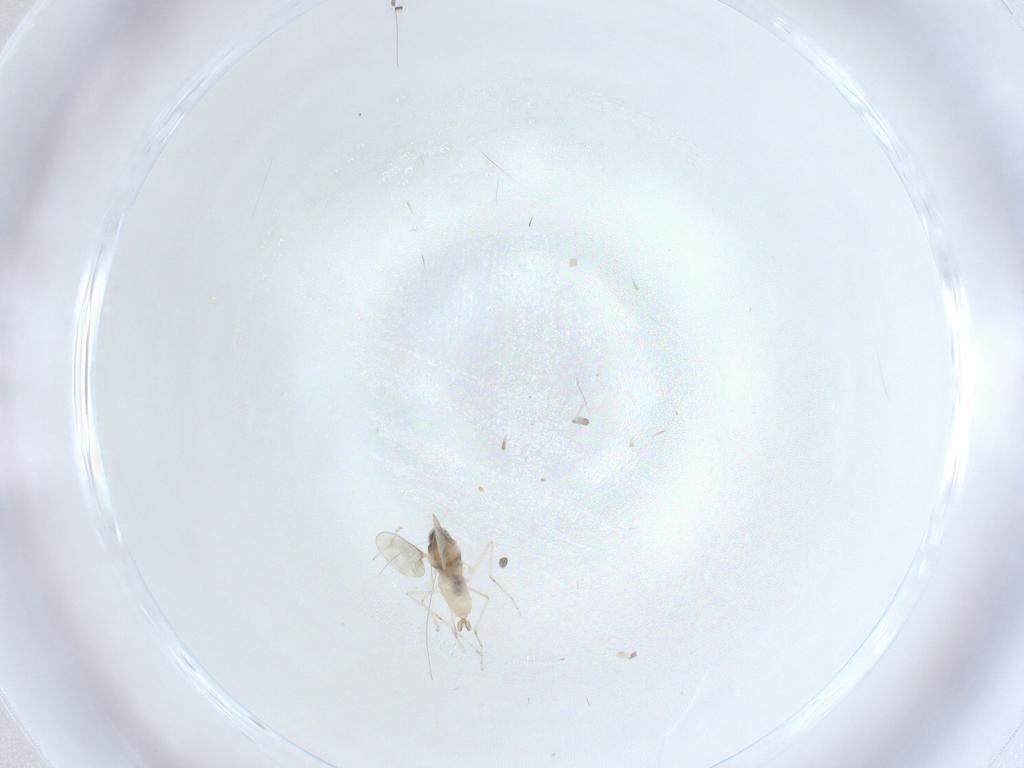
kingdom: Animalia
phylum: Arthropoda
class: Insecta
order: Diptera
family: Cecidomyiidae
